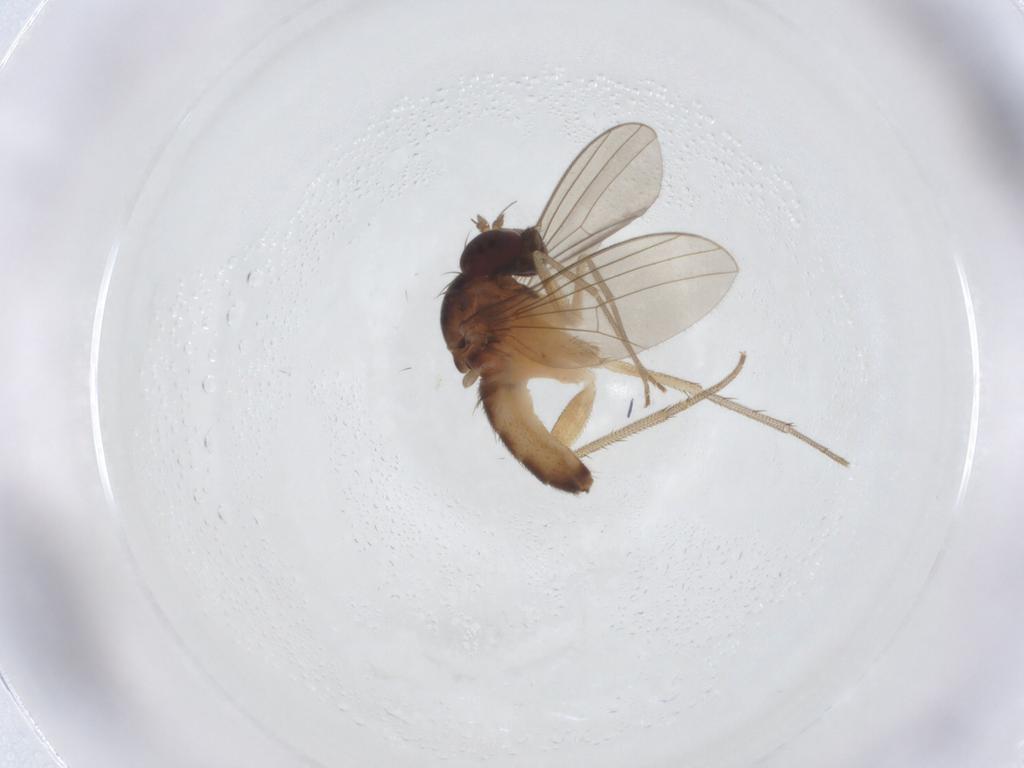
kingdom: Animalia
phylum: Arthropoda
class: Insecta
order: Diptera
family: Dolichopodidae
